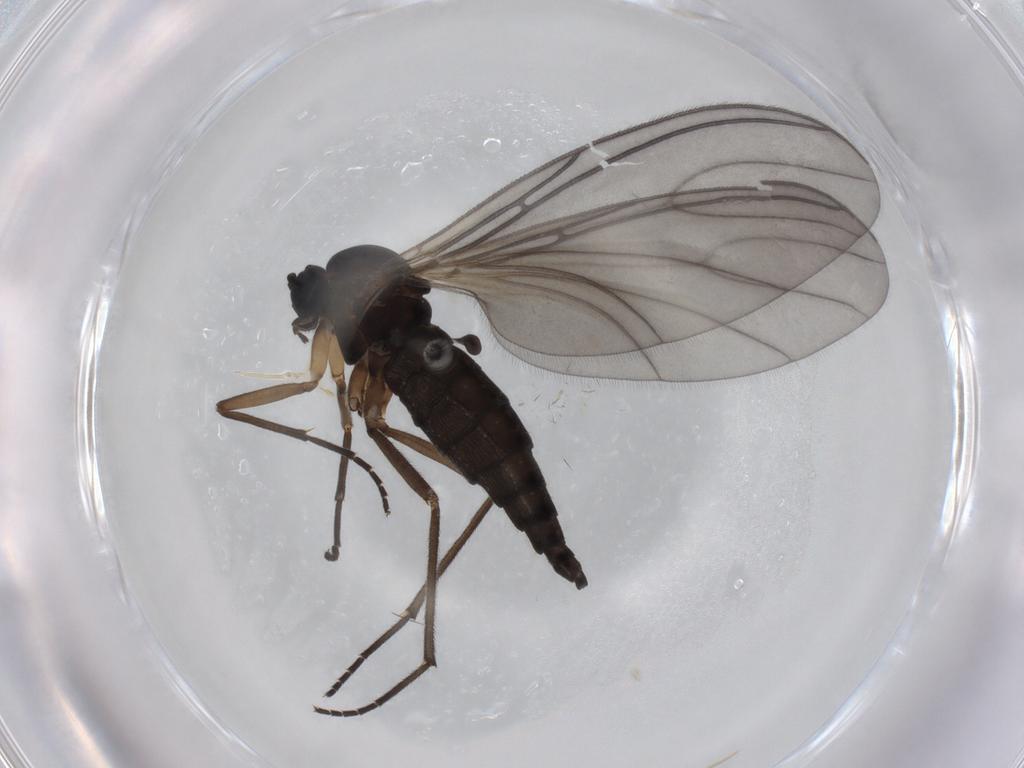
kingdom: Animalia
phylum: Arthropoda
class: Insecta
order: Diptera
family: Sciaridae
